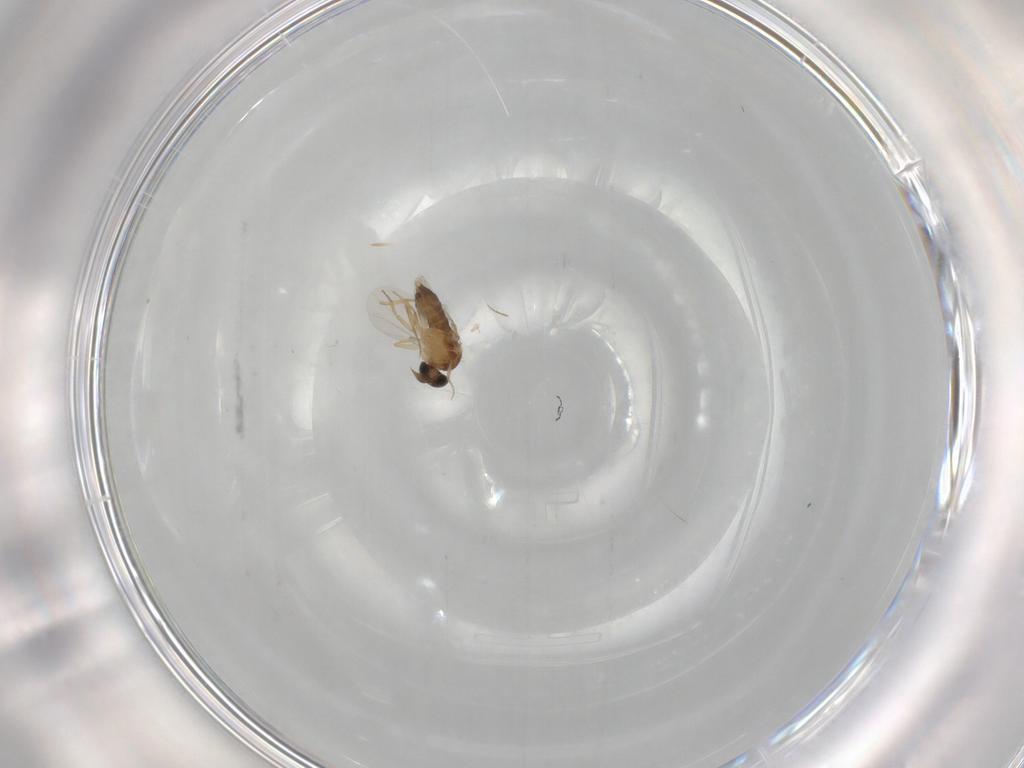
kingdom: Animalia
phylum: Arthropoda
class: Insecta
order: Diptera
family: Phoridae
